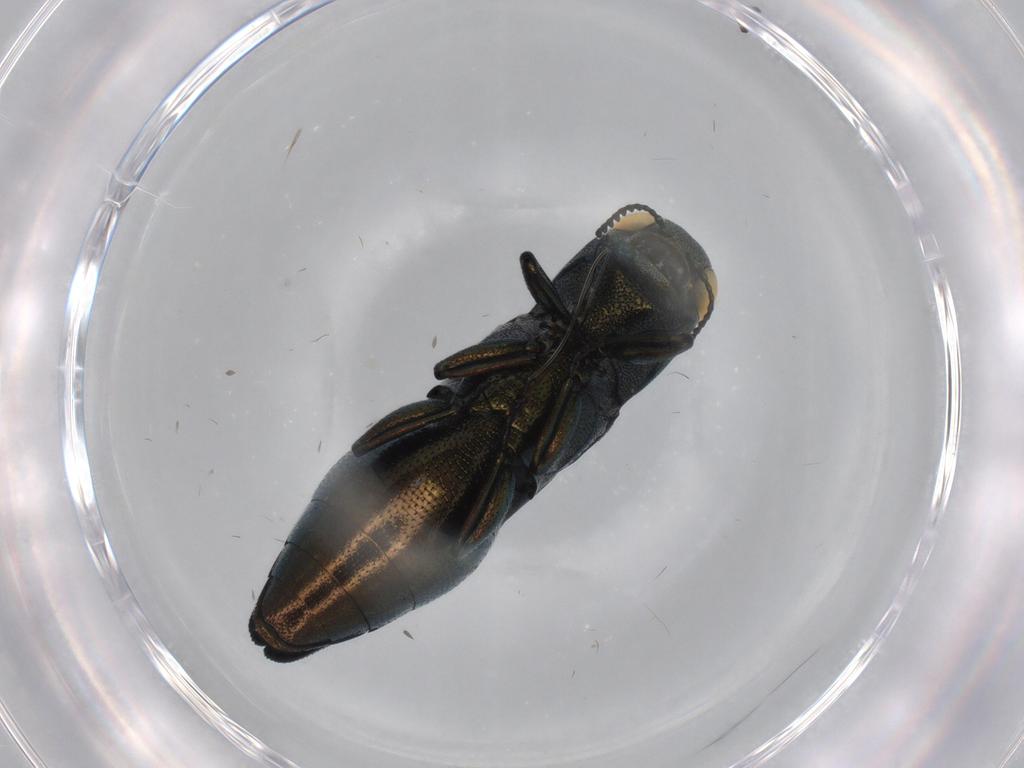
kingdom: Animalia
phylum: Arthropoda
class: Insecta
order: Coleoptera
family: Buprestidae
